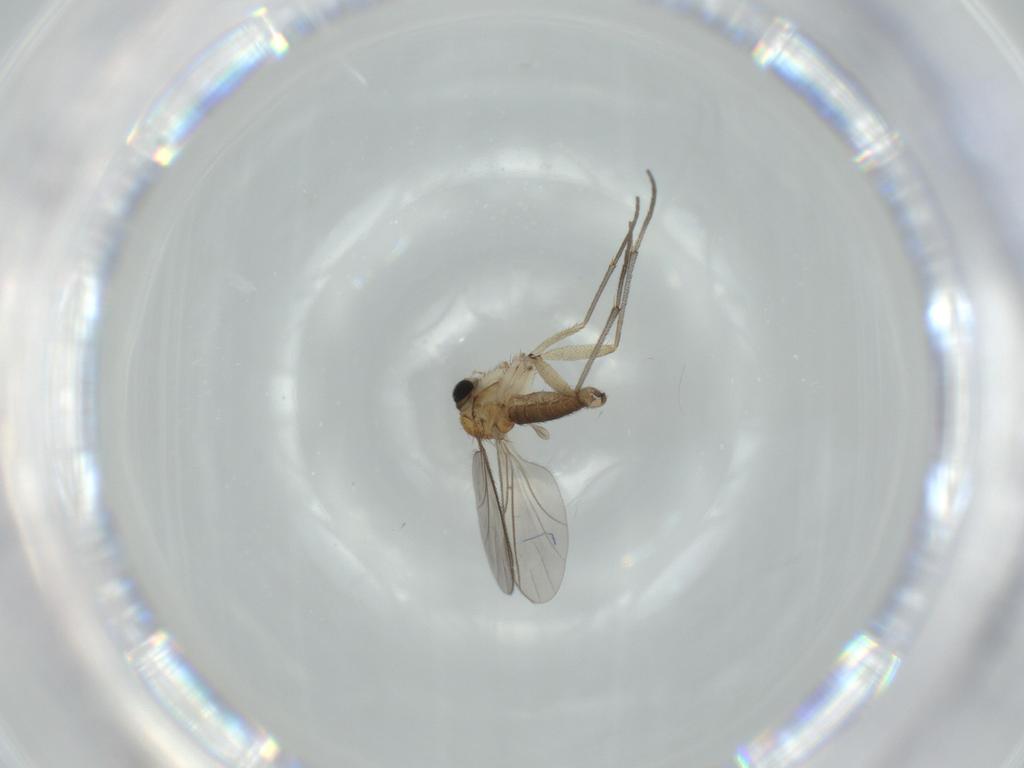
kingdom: Animalia
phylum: Arthropoda
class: Insecta
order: Diptera
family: Sciaridae
